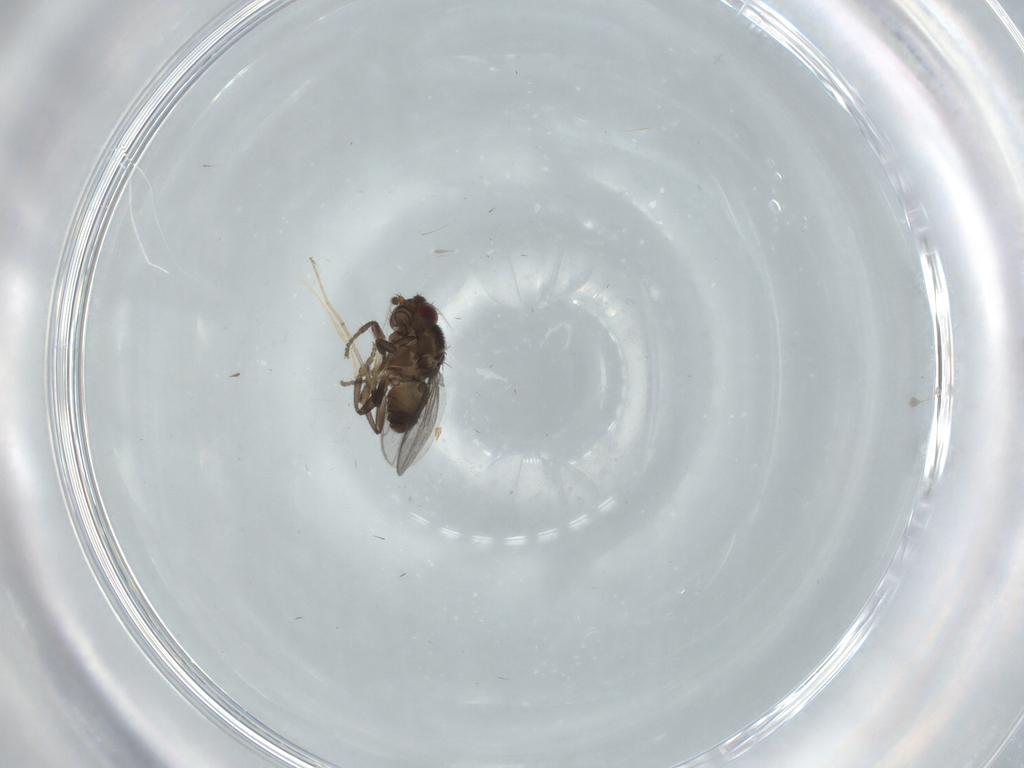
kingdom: Animalia
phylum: Arthropoda
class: Insecta
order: Diptera
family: Sphaeroceridae
